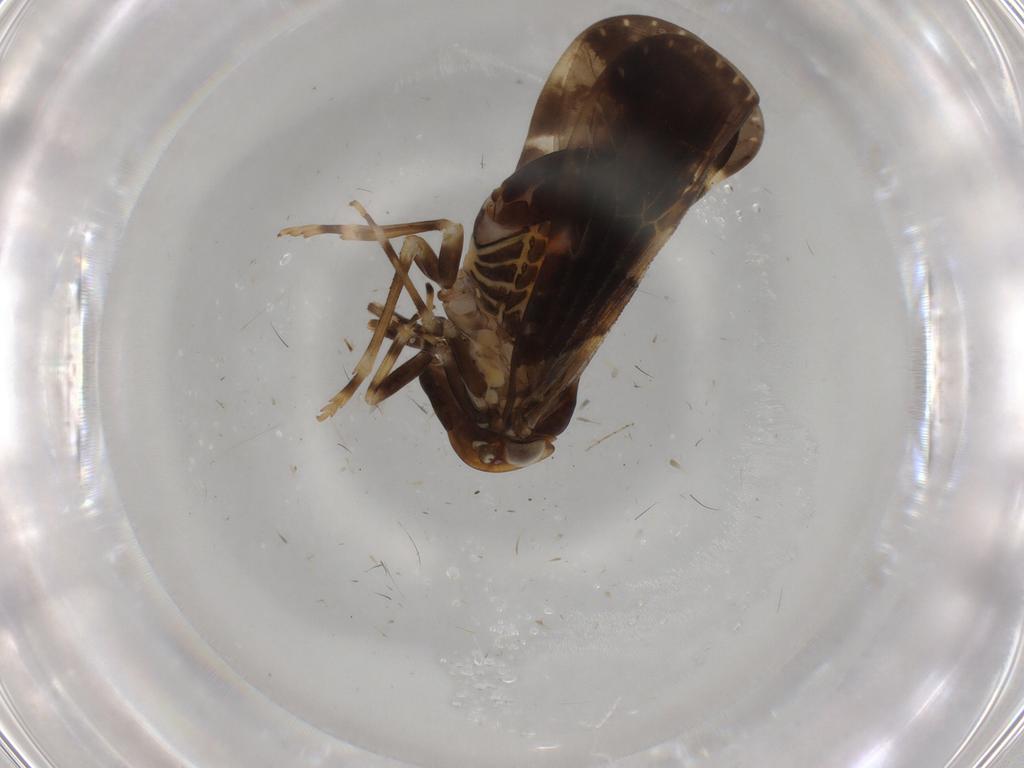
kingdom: Animalia
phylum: Arthropoda
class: Insecta
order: Hemiptera
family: Cixiidae
